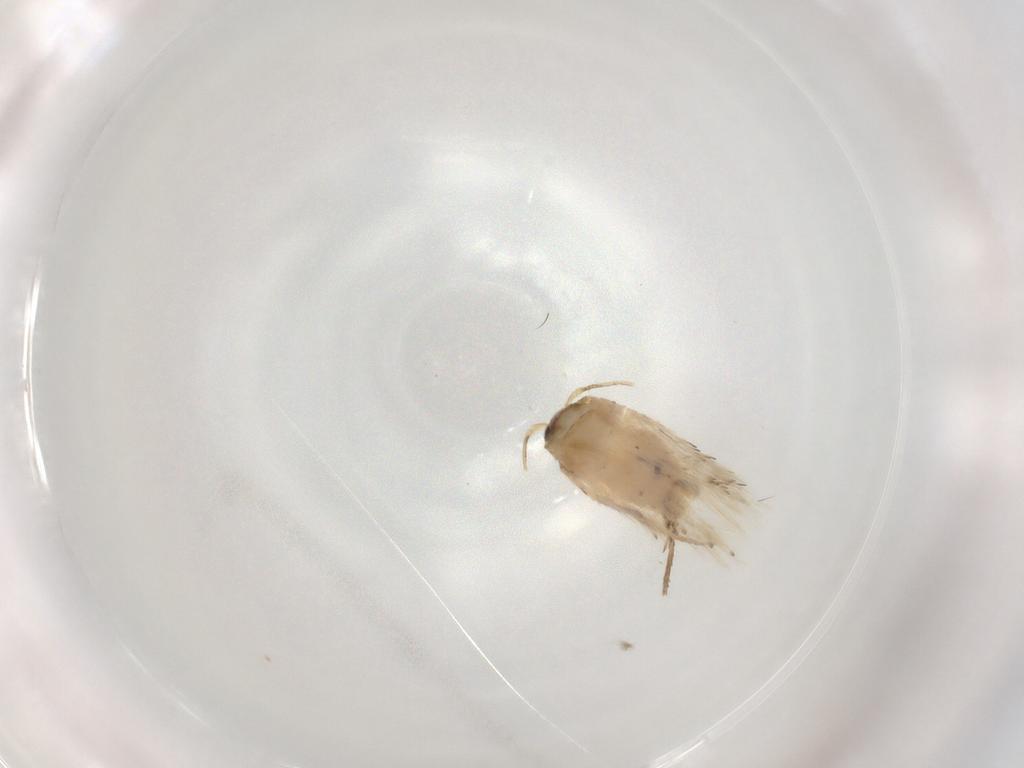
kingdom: Animalia
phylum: Arthropoda
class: Insecta
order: Lepidoptera
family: Nepticulidae
